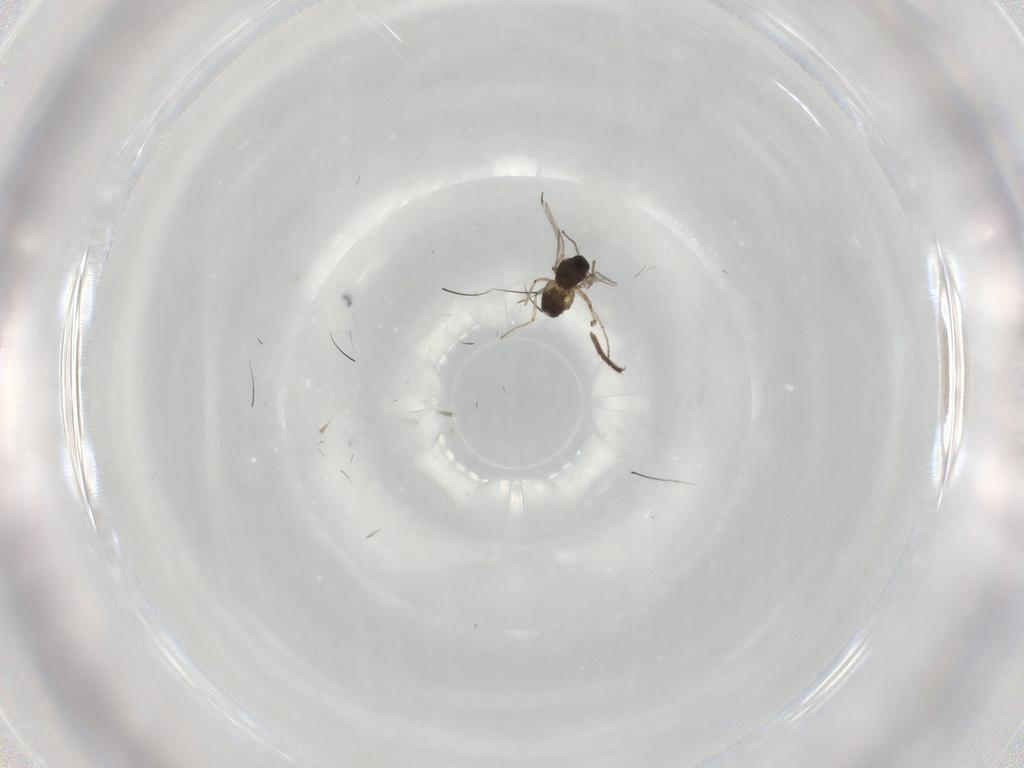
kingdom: Animalia
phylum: Arthropoda
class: Insecta
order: Diptera
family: Ceratopogonidae
